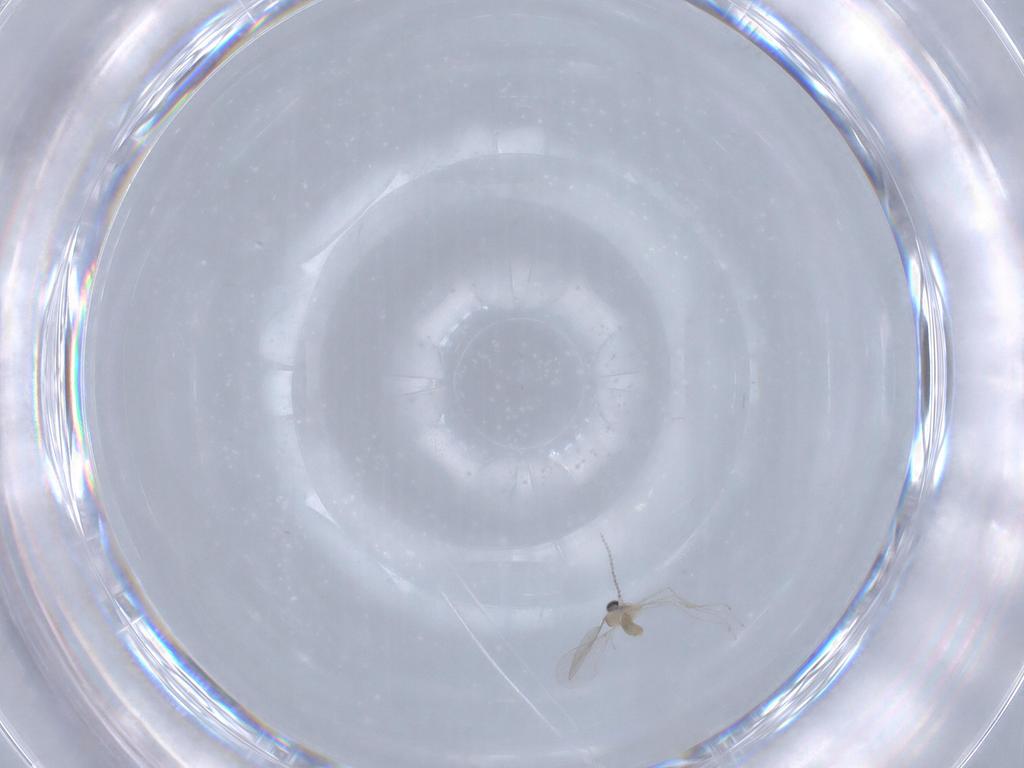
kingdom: Animalia
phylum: Arthropoda
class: Insecta
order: Diptera
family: Cecidomyiidae
